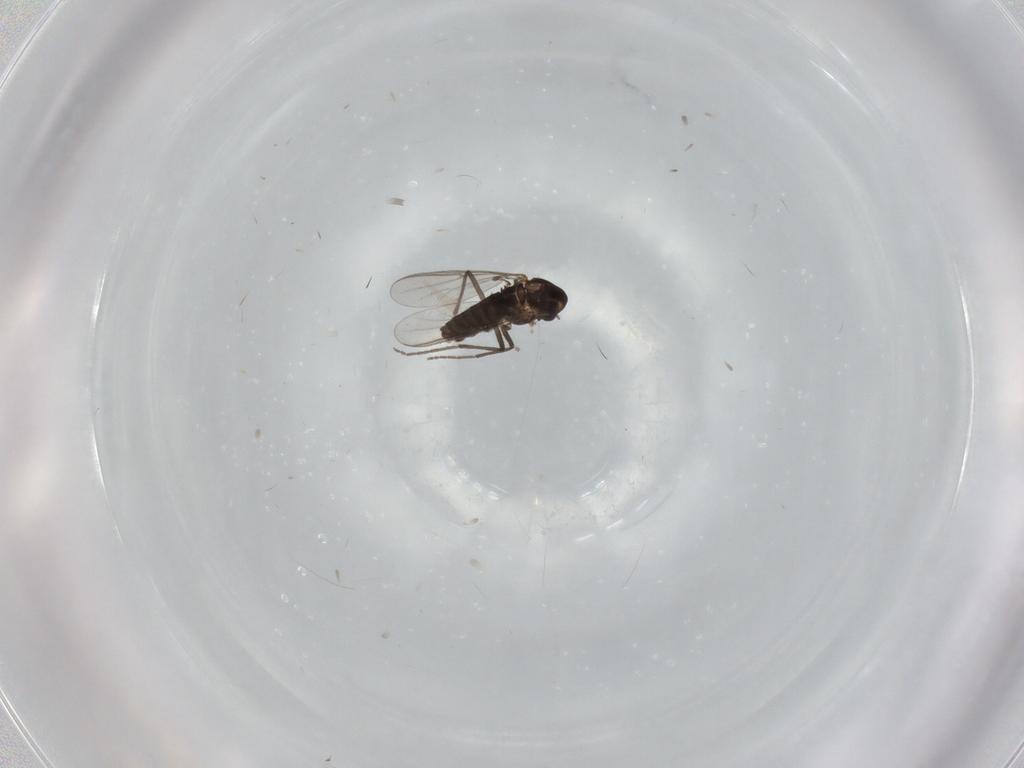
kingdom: Animalia
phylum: Arthropoda
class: Insecta
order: Diptera
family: Chironomidae
